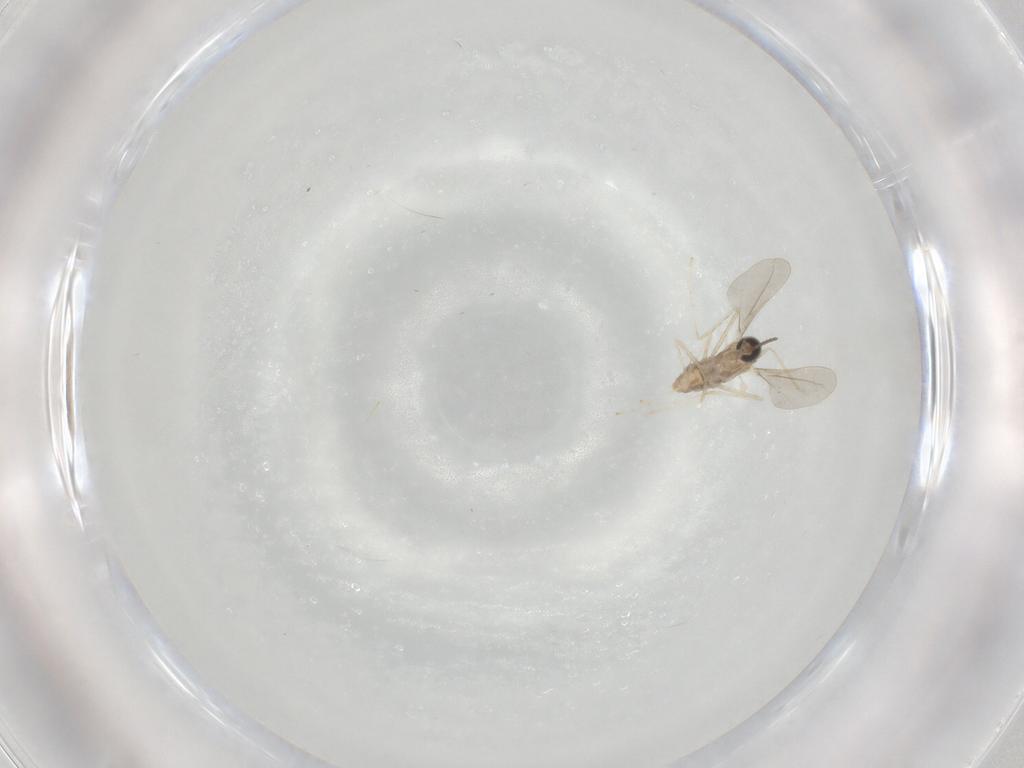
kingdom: Animalia
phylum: Arthropoda
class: Insecta
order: Diptera
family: Cecidomyiidae
